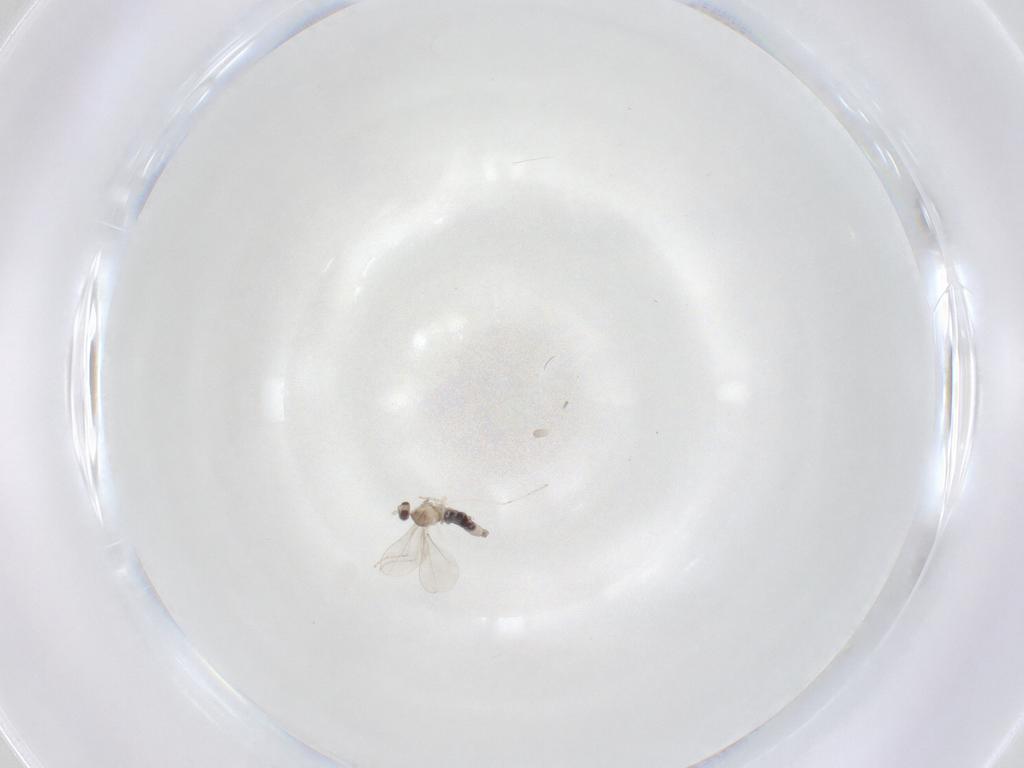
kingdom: Animalia
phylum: Arthropoda
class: Insecta
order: Diptera
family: Cecidomyiidae
